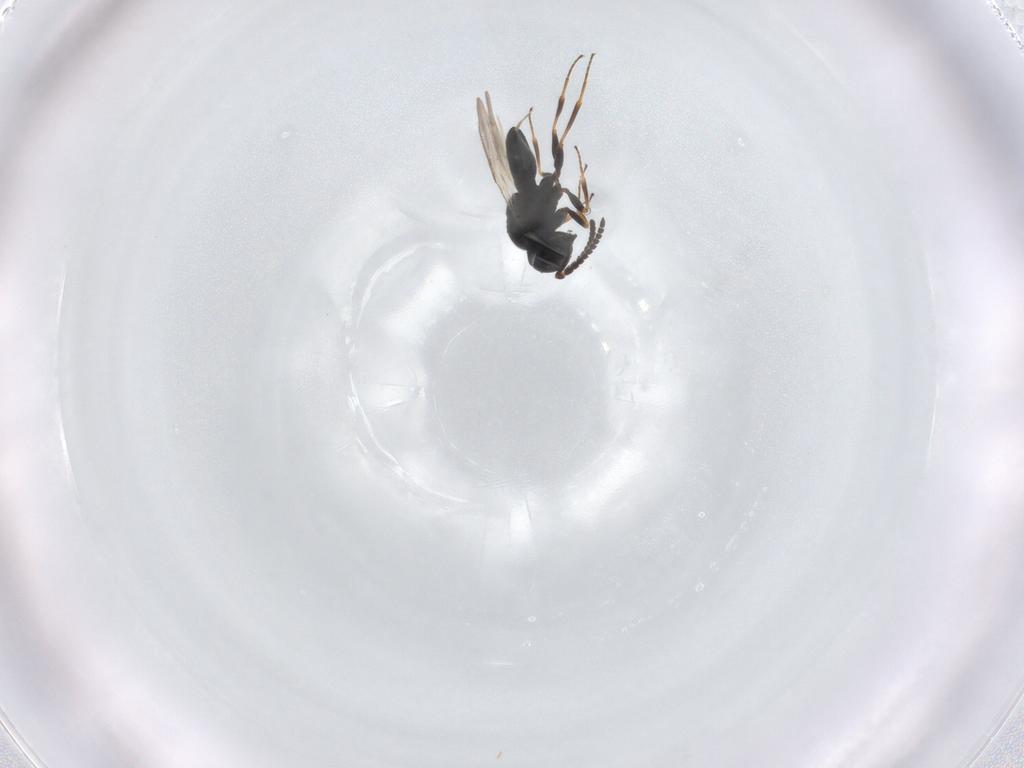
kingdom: Animalia
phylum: Arthropoda
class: Insecta
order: Hymenoptera
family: Scelionidae
